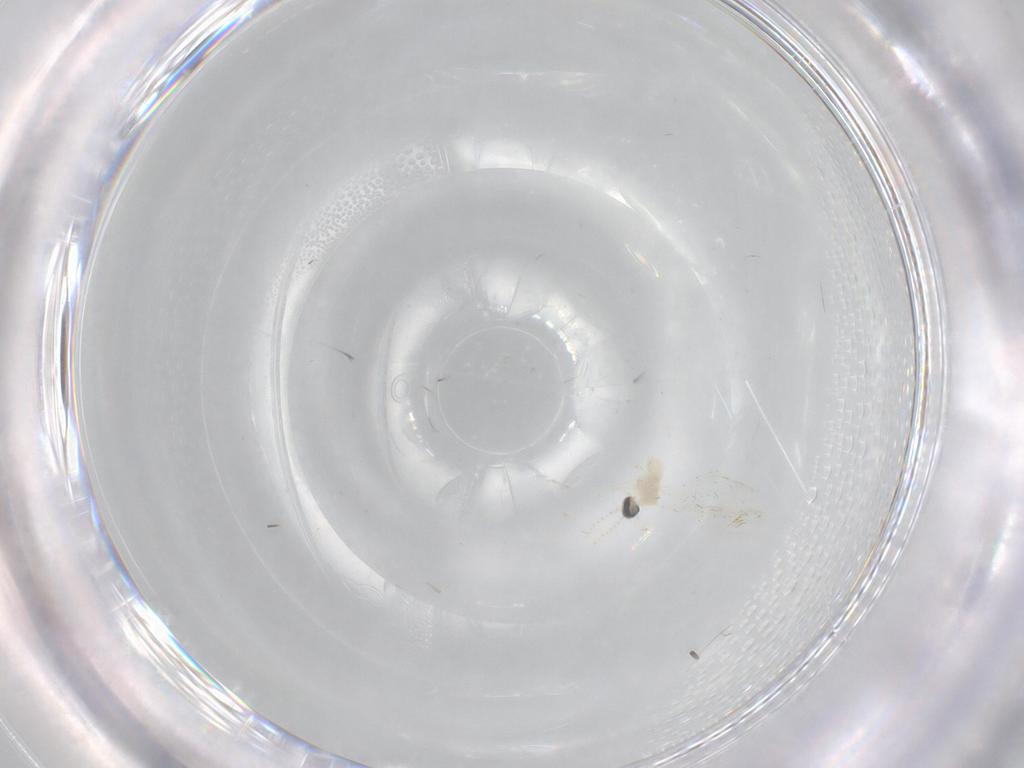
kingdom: Animalia
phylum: Arthropoda
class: Insecta
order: Diptera
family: Cecidomyiidae
